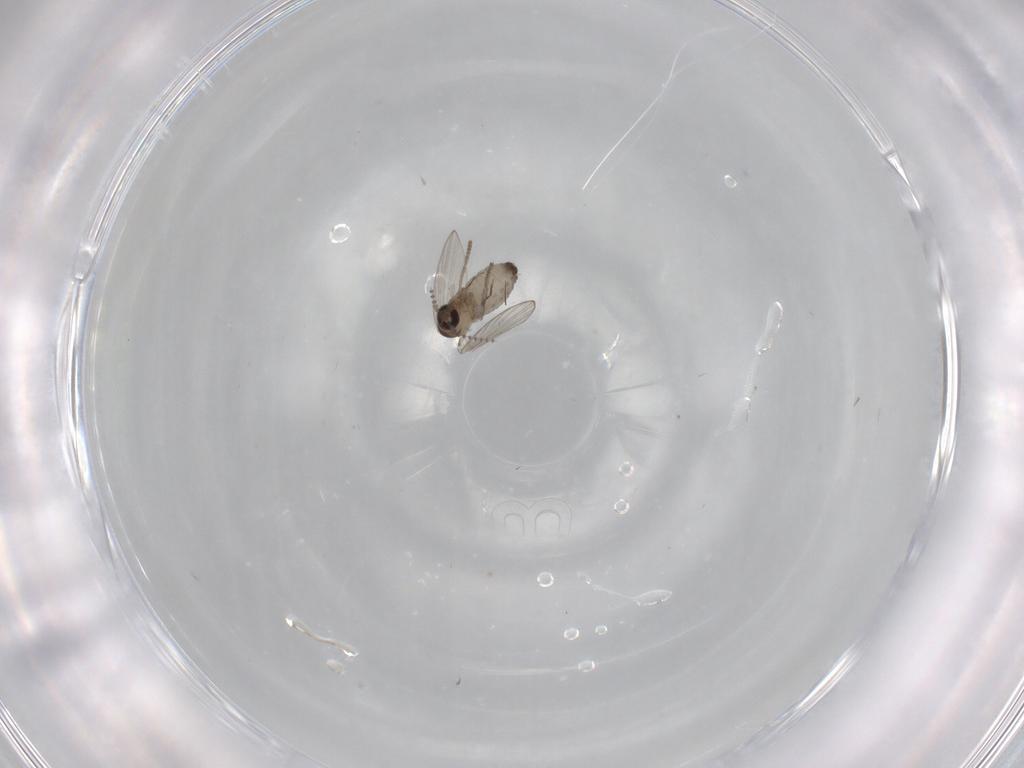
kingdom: Animalia
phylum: Arthropoda
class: Insecta
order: Diptera
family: Psychodidae
